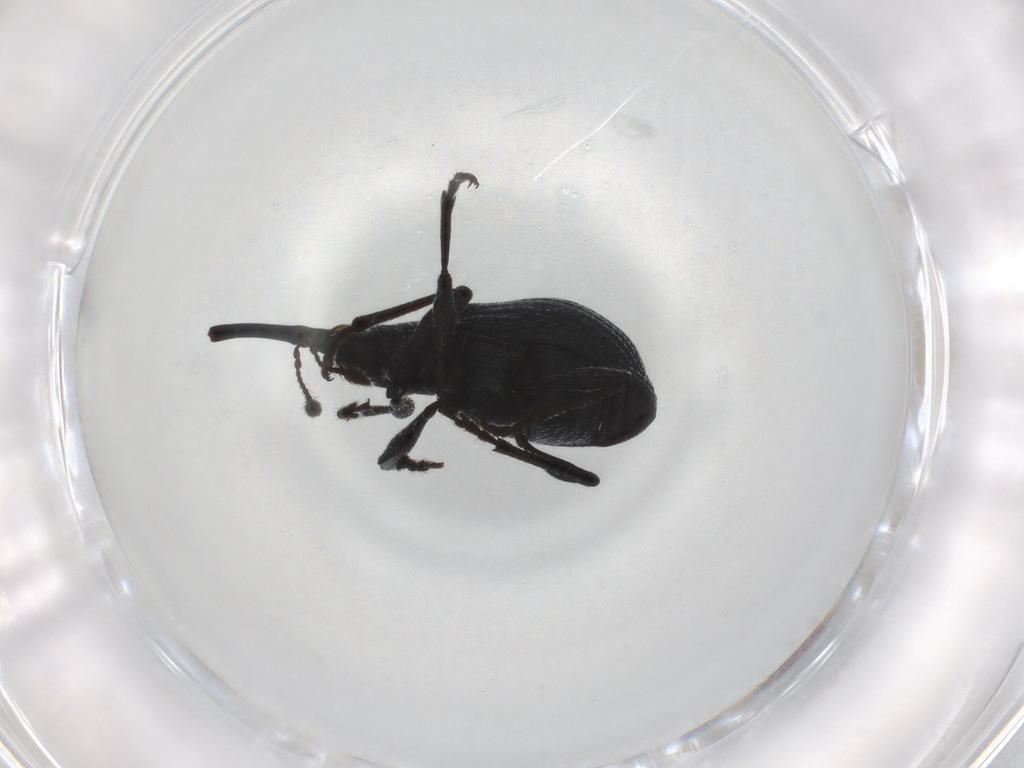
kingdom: Animalia
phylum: Arthropoda
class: Insecta
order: Coleoptera
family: Brentidae
